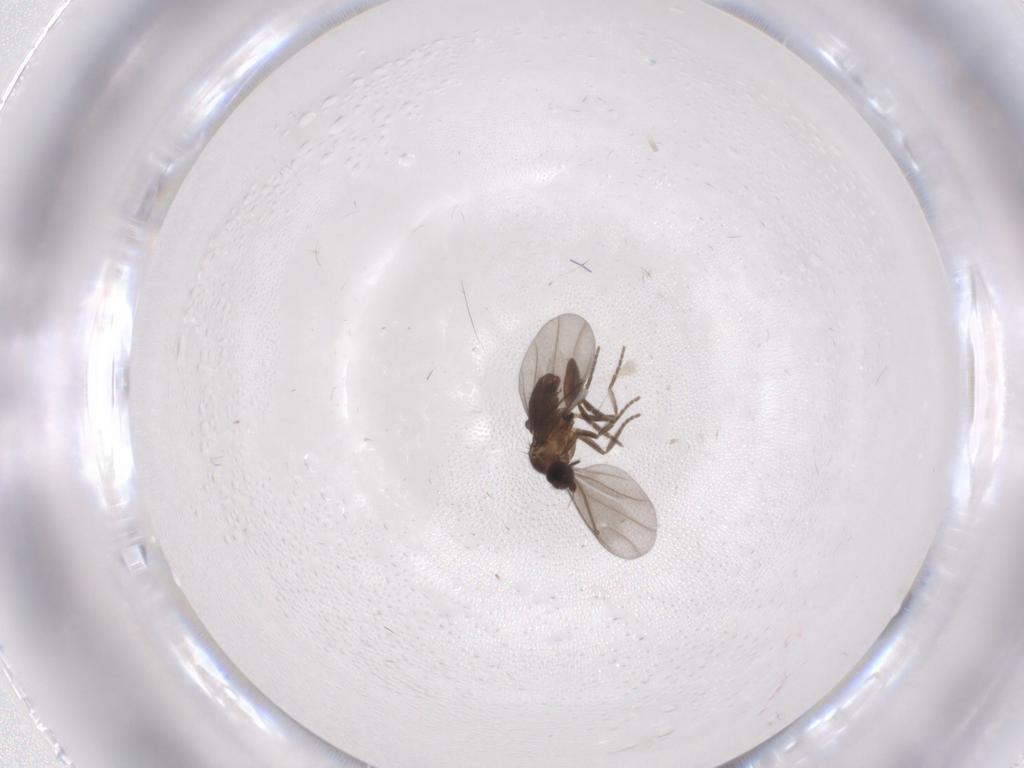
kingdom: Animalia
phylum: Arthropoda
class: Insecta
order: Diptera
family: Phoridae
